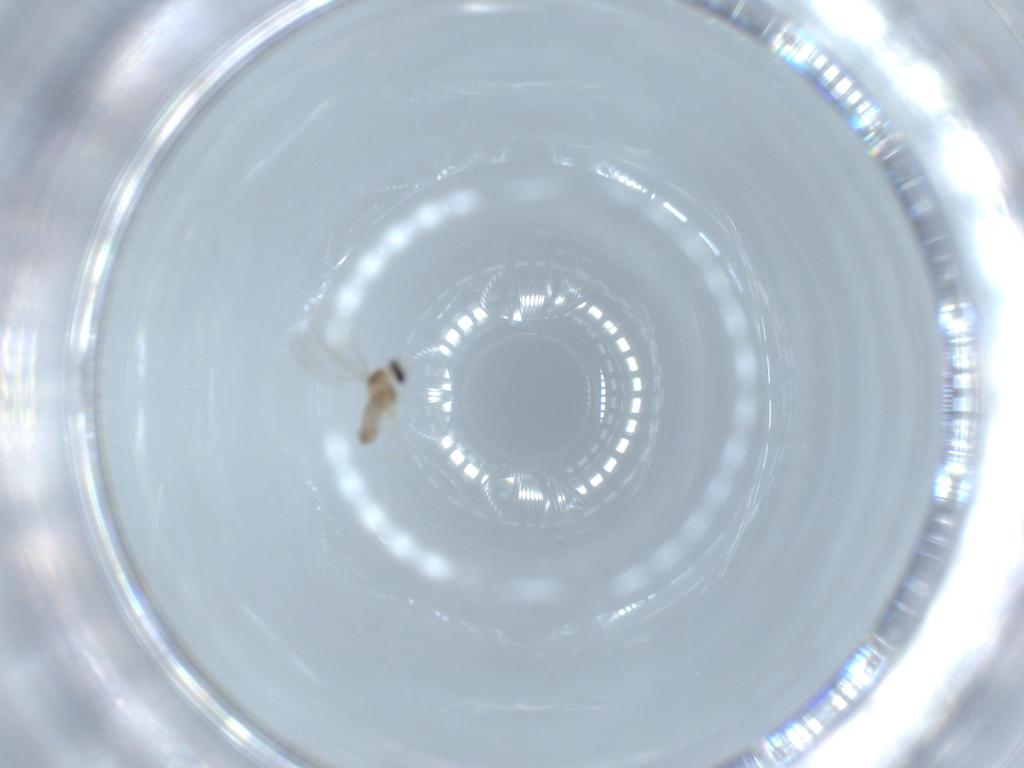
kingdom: Animalia
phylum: Arthropoda
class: Insecta
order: Diptera
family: Cecidomyiidae
